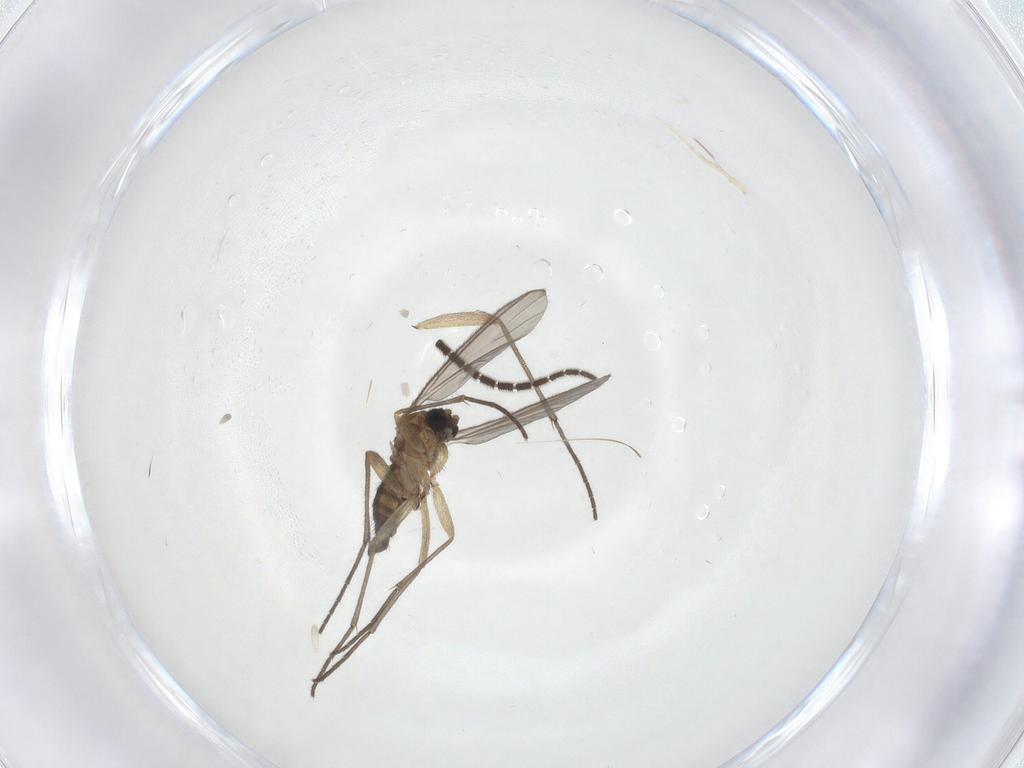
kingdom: Animalia
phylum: Arthropoda
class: Insecta
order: Diptera
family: Sciaridae
